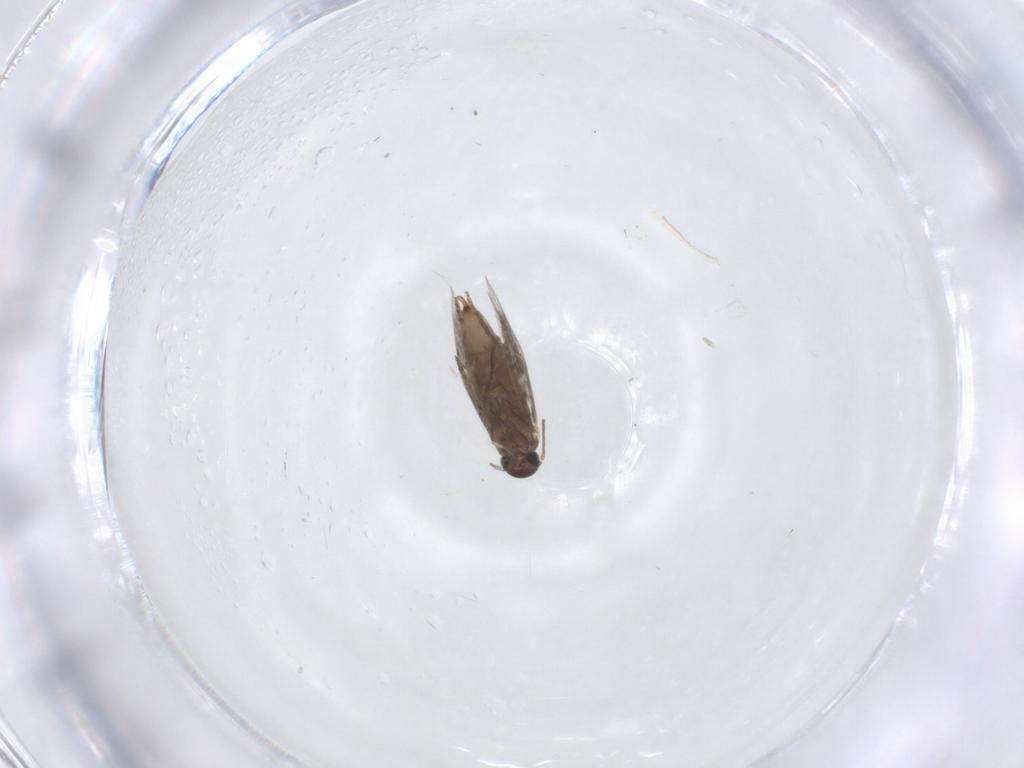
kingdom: Animalia
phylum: Arthropoda
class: Insecta
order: Lepidoptera
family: Heliozelidae
